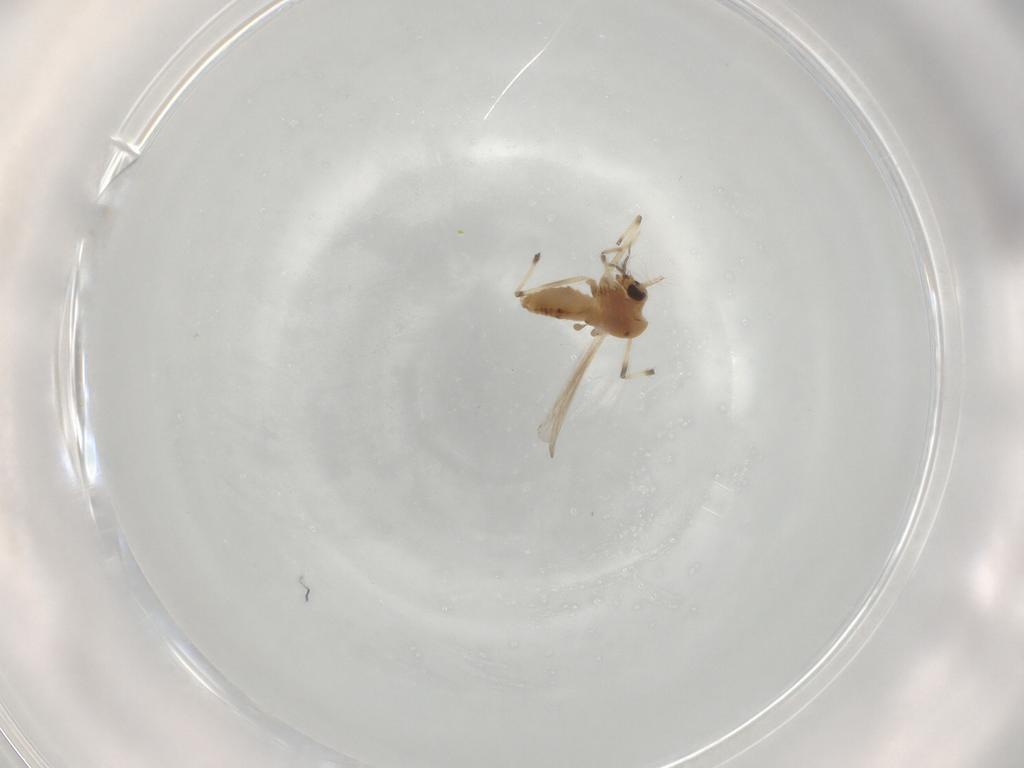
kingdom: Animalia
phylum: Arthropoda
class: Insecta
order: Diptera
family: Chironomidae
